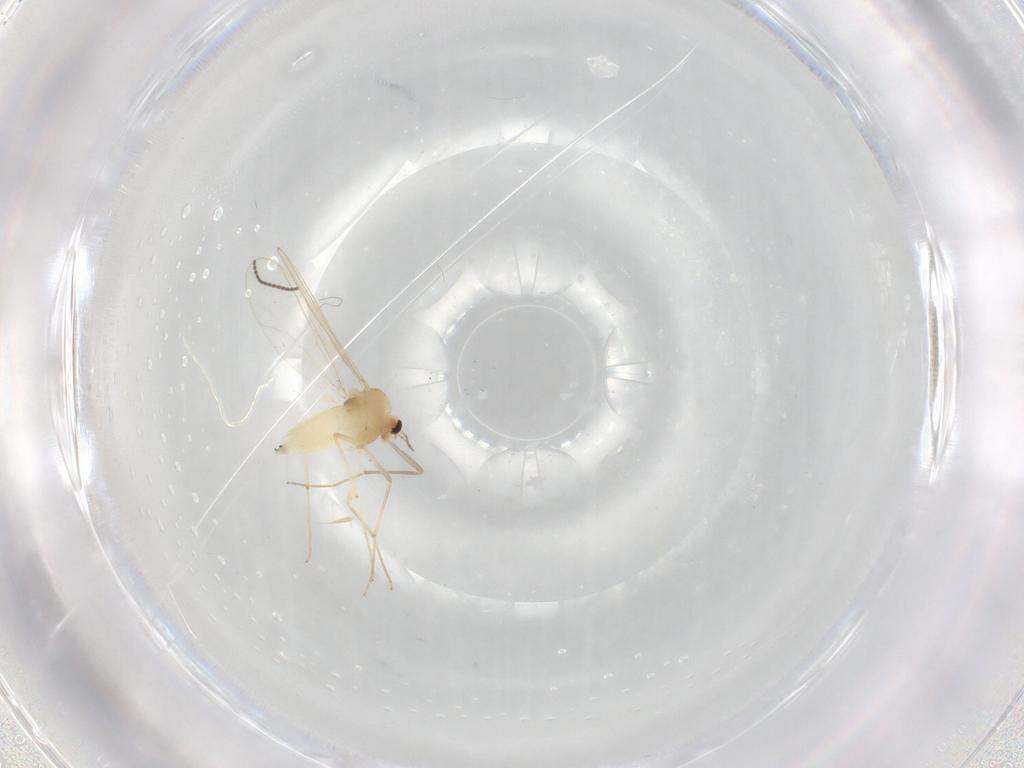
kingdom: Animalia
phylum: Arthropoda
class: Insecta
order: Diptera
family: Chironomidae
